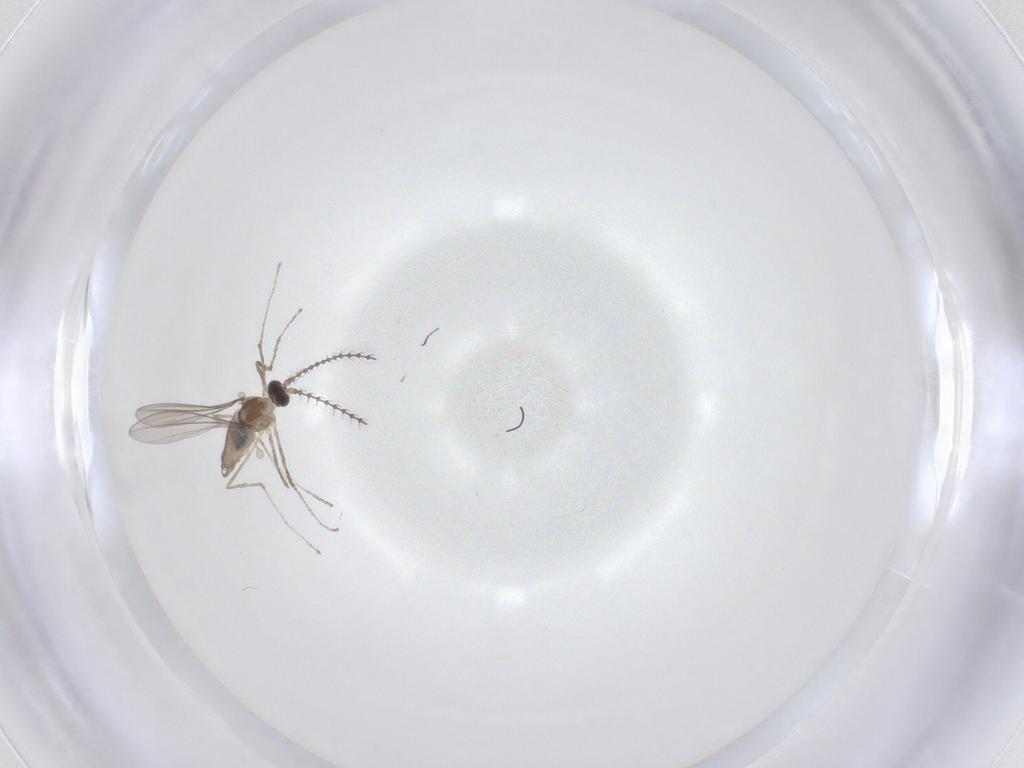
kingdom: Animalia
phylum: Arthropoda
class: Insecta
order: Diptera
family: Cecidomyiidae
